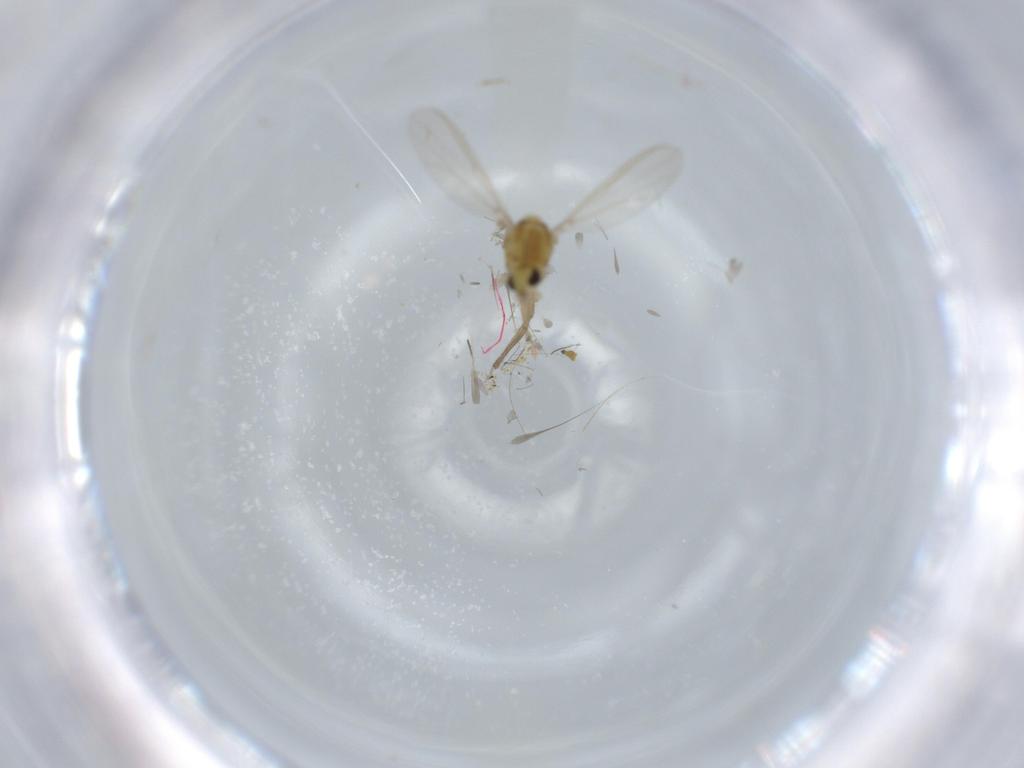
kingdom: Animalia
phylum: Arthropoda
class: Insecta
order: Diptera
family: Chironomidae
